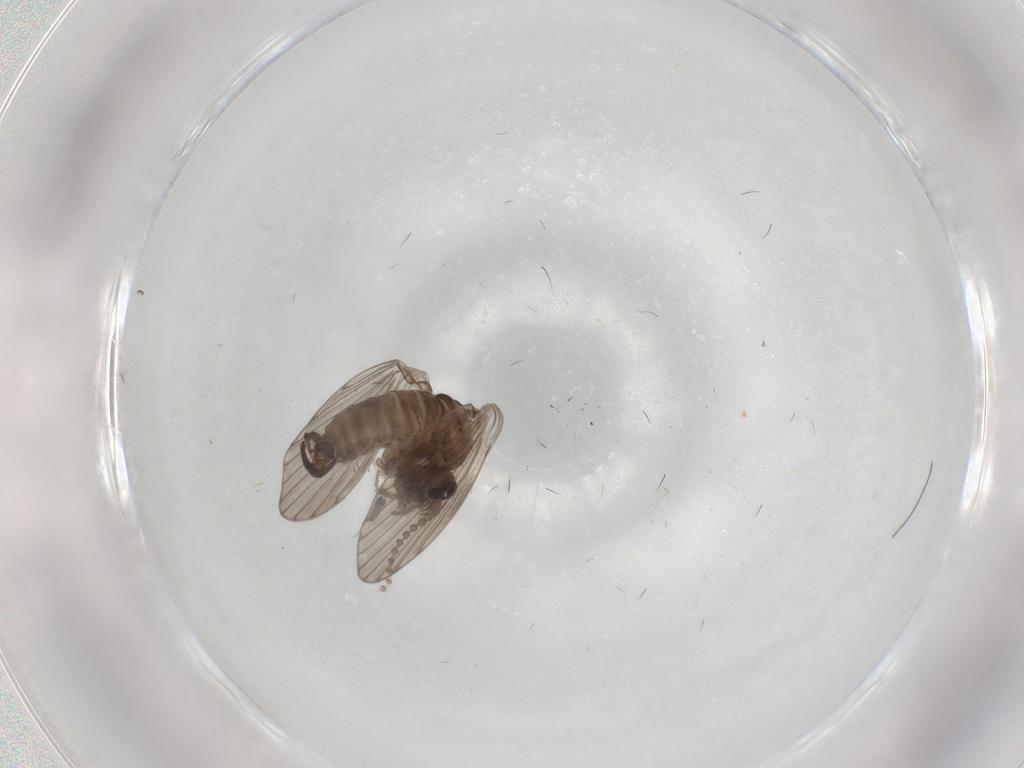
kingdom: Animalia
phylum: Arthropoda
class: Insecta
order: Diptera
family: Psychodidae
